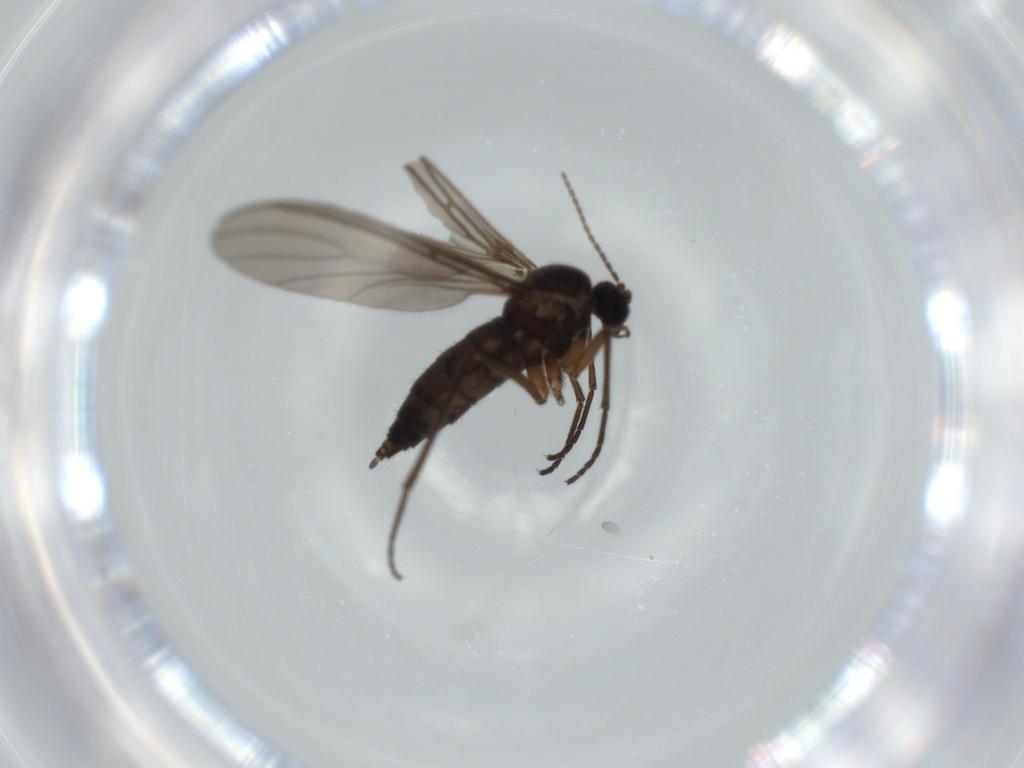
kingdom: Animalia
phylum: Arthropoda
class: Insecta
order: Diptera
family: Sciaridae
